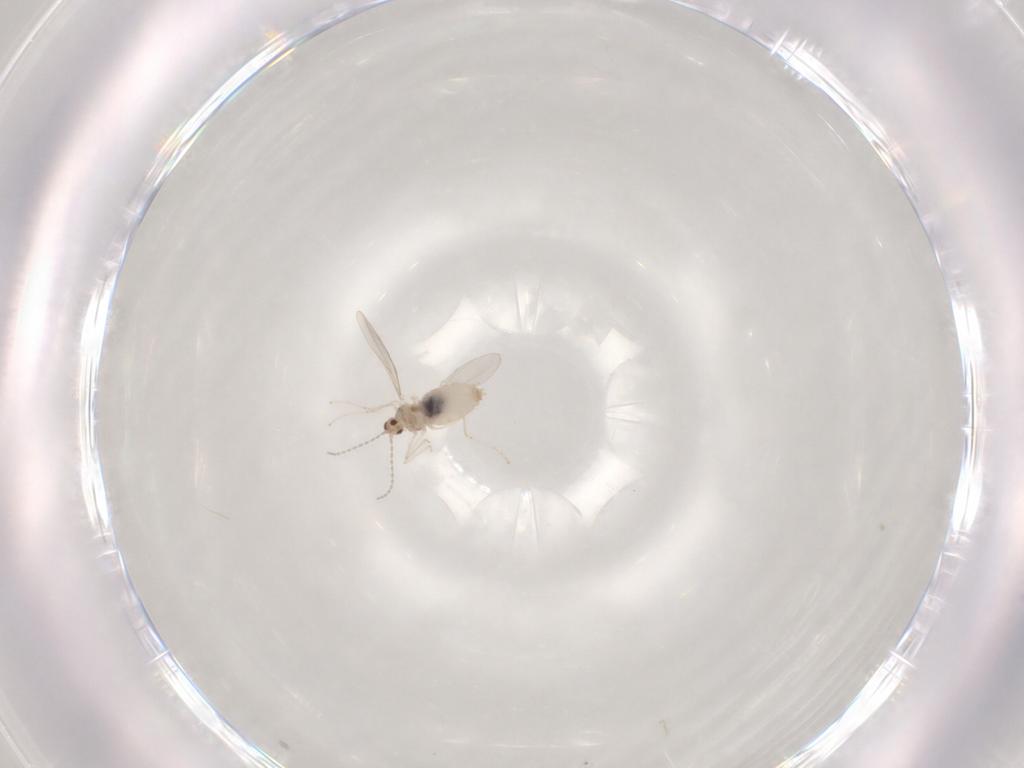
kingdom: Animalia
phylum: Arthropoda
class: Insecta
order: Diptera
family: Cecidomyiidae
